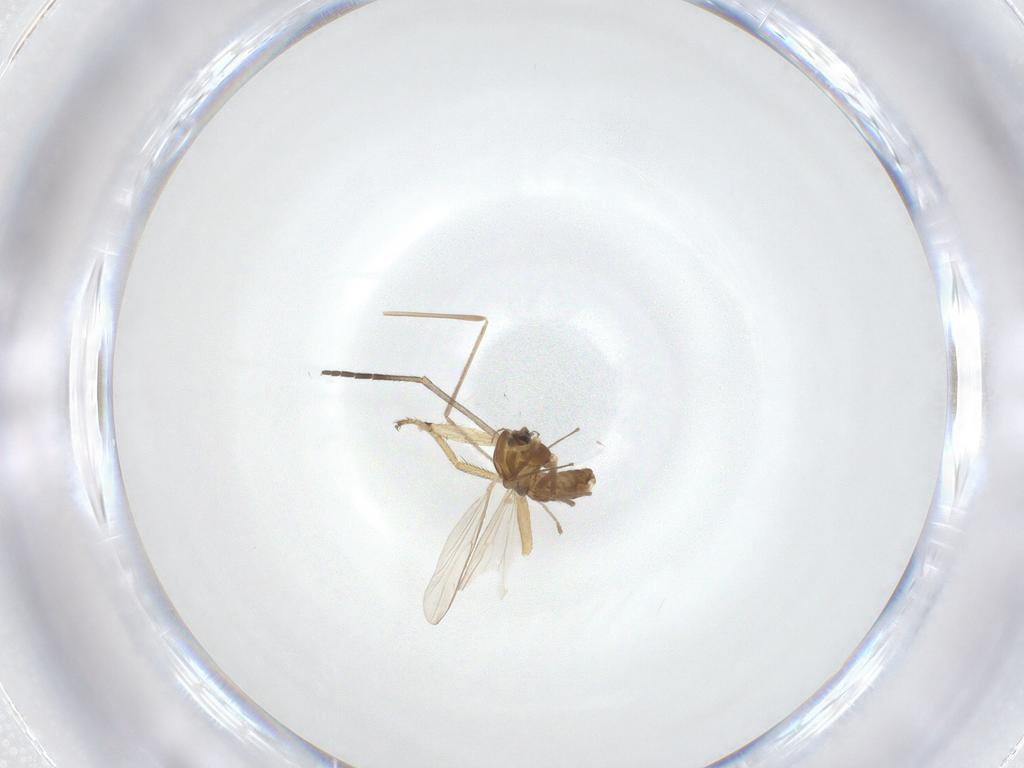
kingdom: Animalia
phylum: Arthropoda
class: Insecta
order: Diptera
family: Chironomidae
